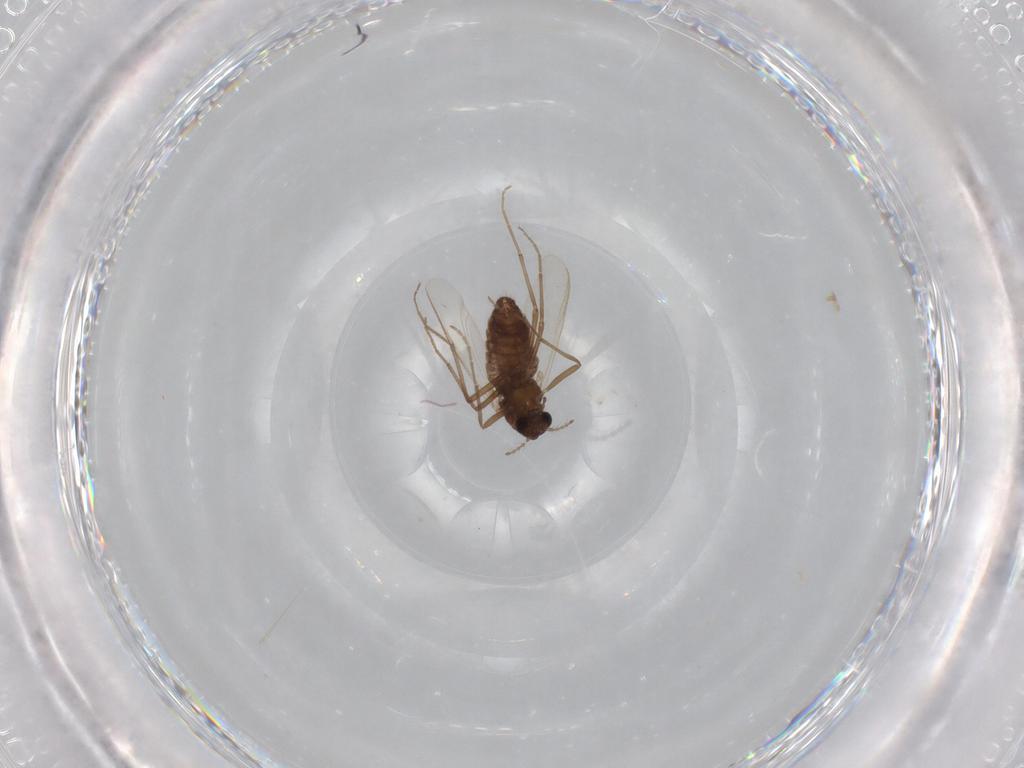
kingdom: Animalia
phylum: Arthropoda
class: Insecta
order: Diptera
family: Chironomidae
